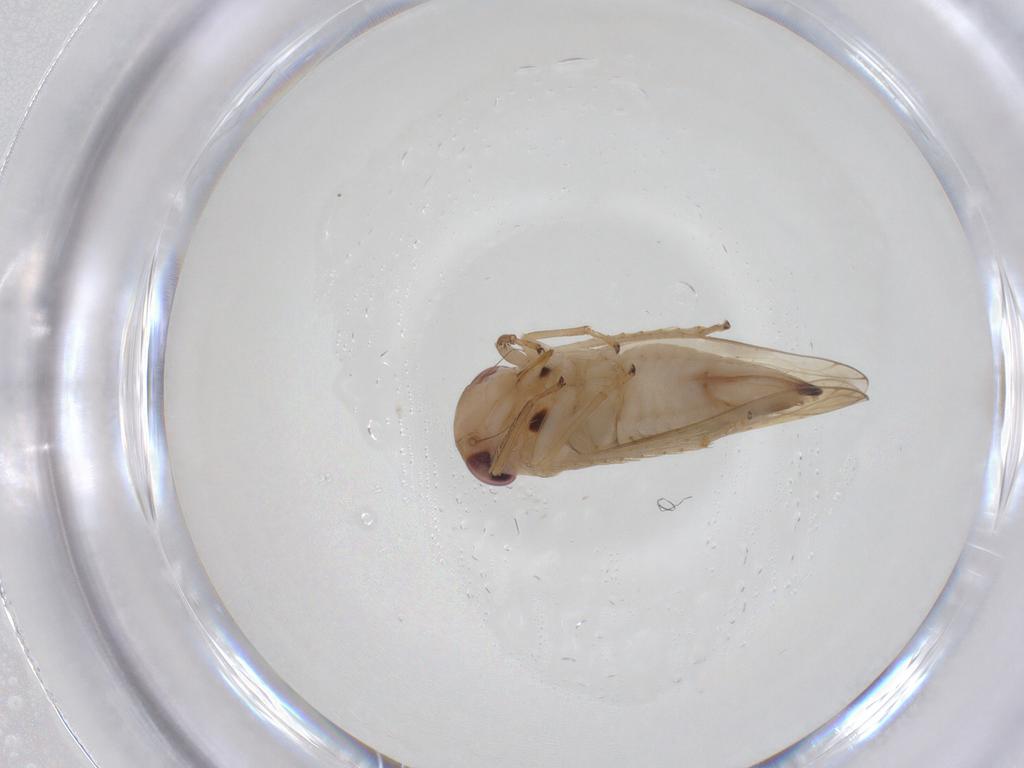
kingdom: Animalia
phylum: Arthropoda
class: Insecta
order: Hemiptera
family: Cicadellidae
